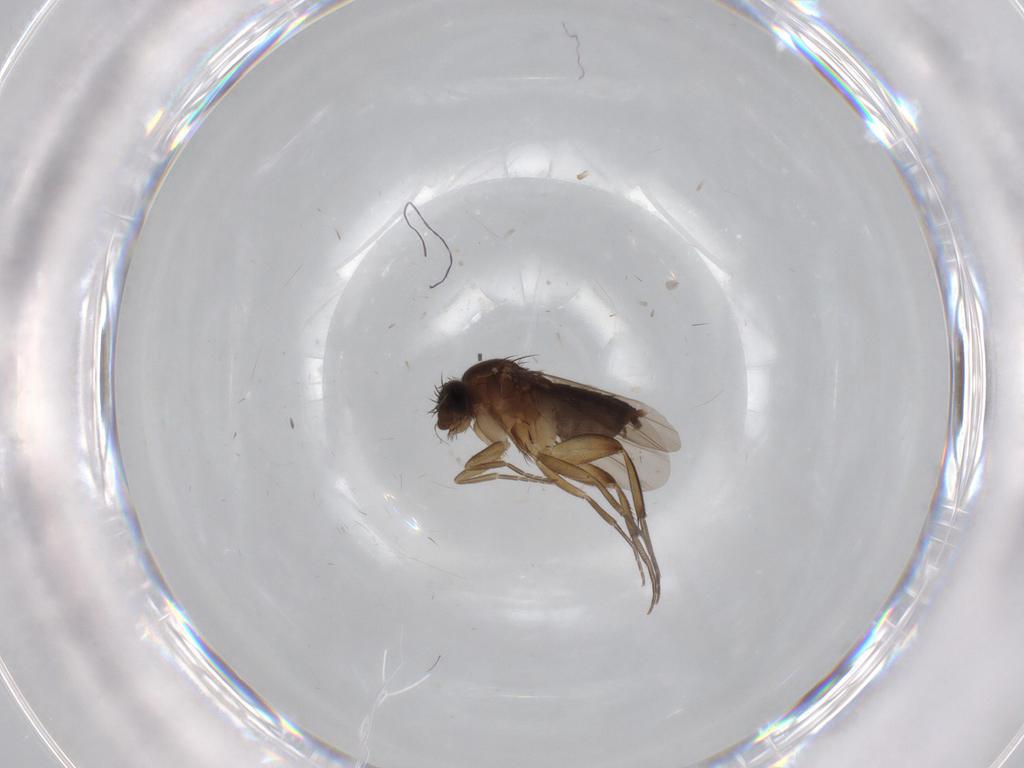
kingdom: Animalia
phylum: Arthropoda
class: Insecta
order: Diptera
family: Phoridae
